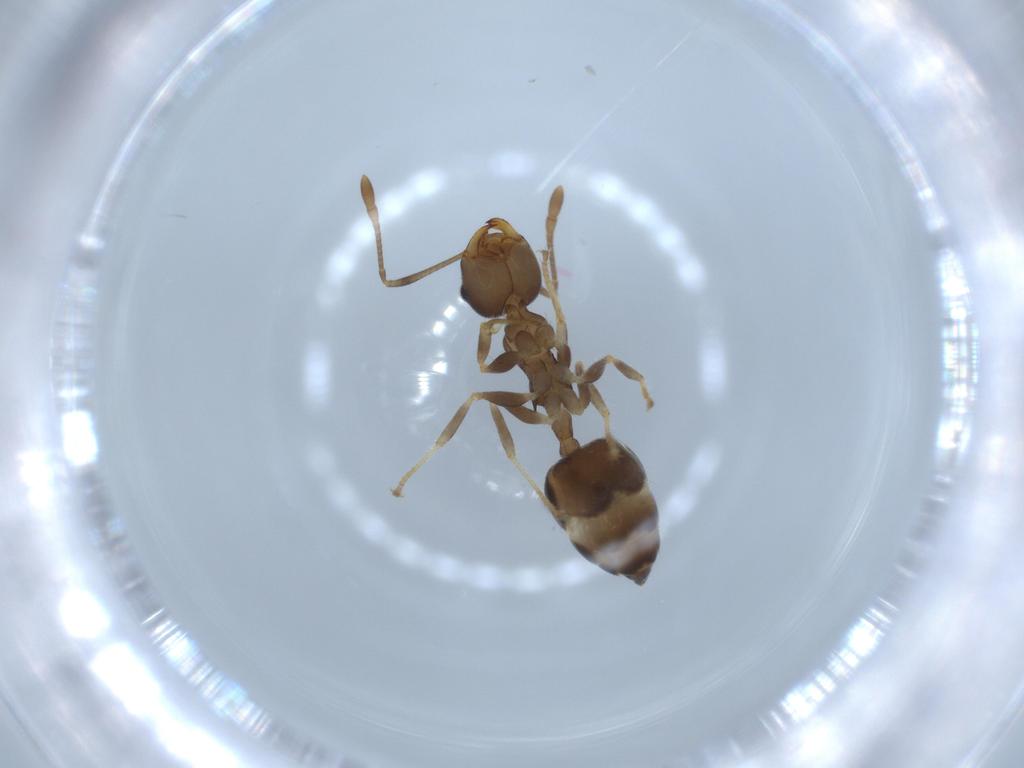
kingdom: Animalia
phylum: Arthropoda
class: Insecta
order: Hymenoptera
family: Formicidae
